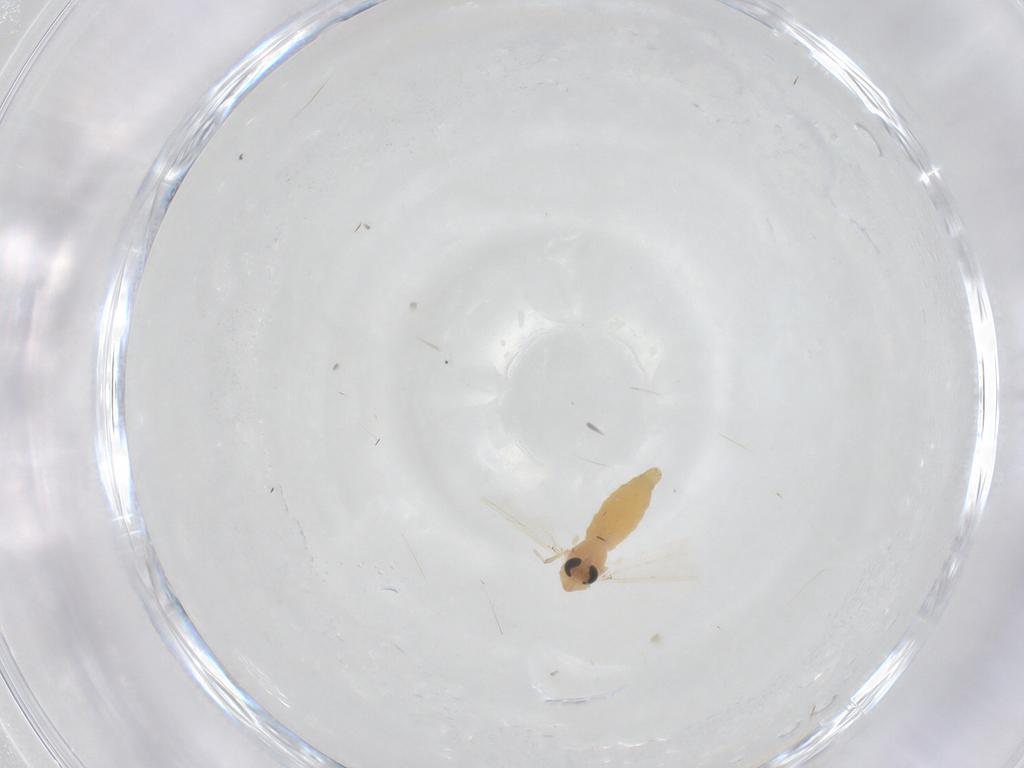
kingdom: Animalia
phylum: Arthropoda
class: Insecta
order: Diptera
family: Chironomidae
